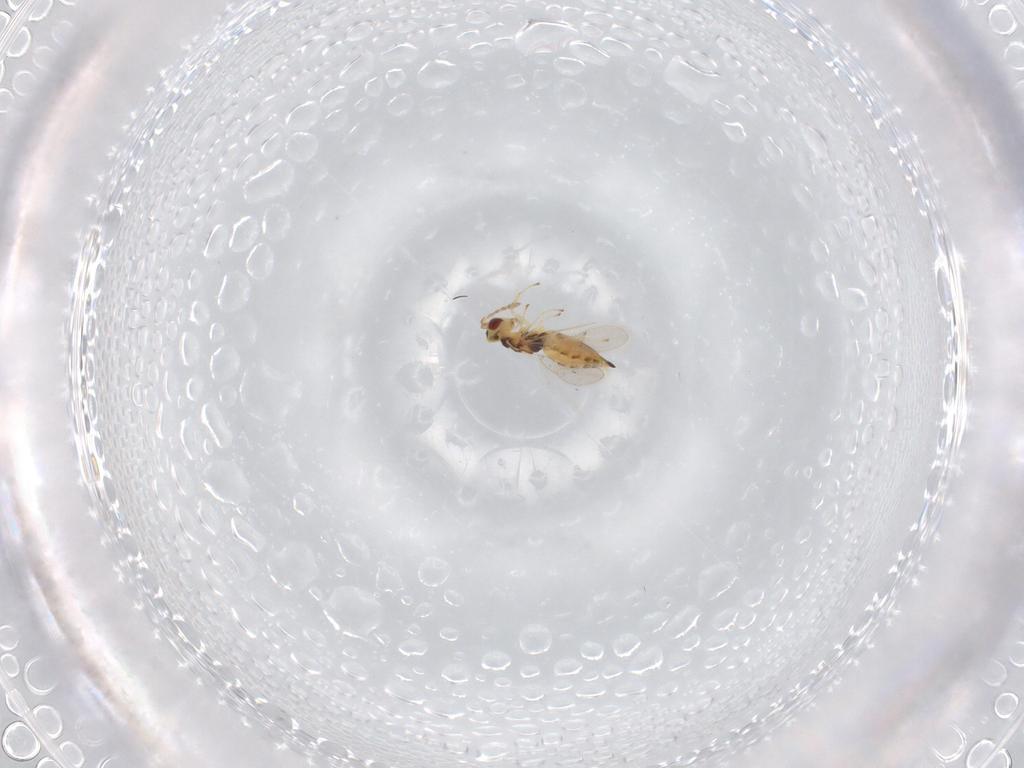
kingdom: Animalia
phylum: Arthropoda
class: Insecta
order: Hymenoptera
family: Eulophidae
